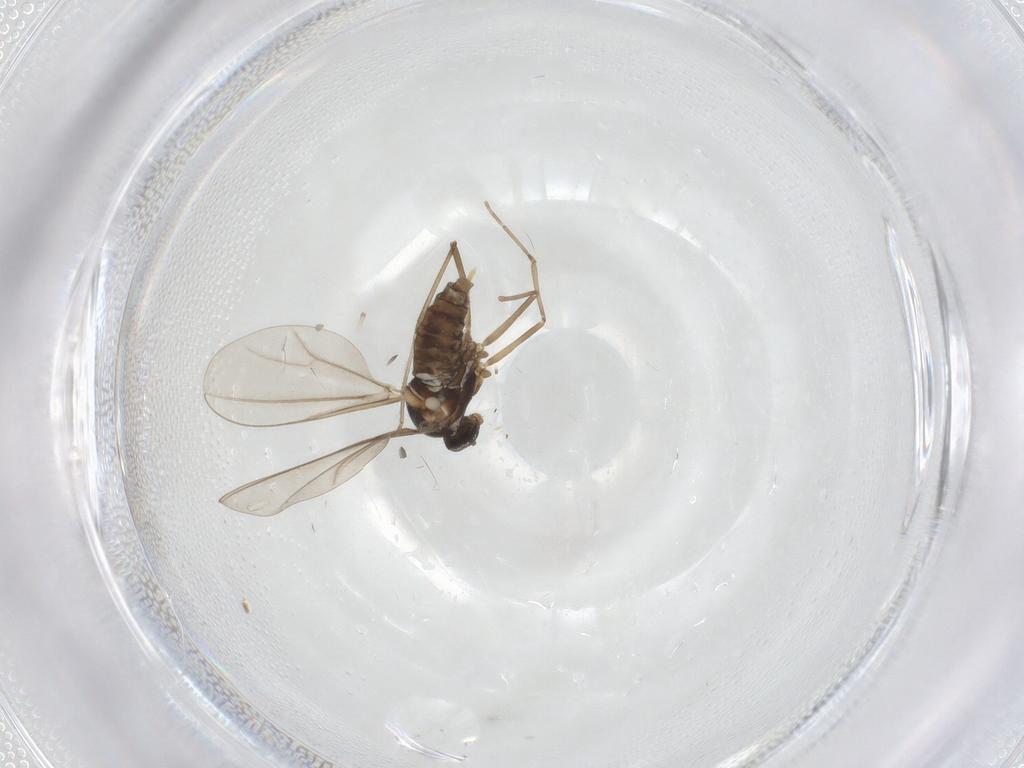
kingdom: Animalia
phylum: Arthropoda
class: Insecta
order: Diptera
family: Cecidomyiidae
